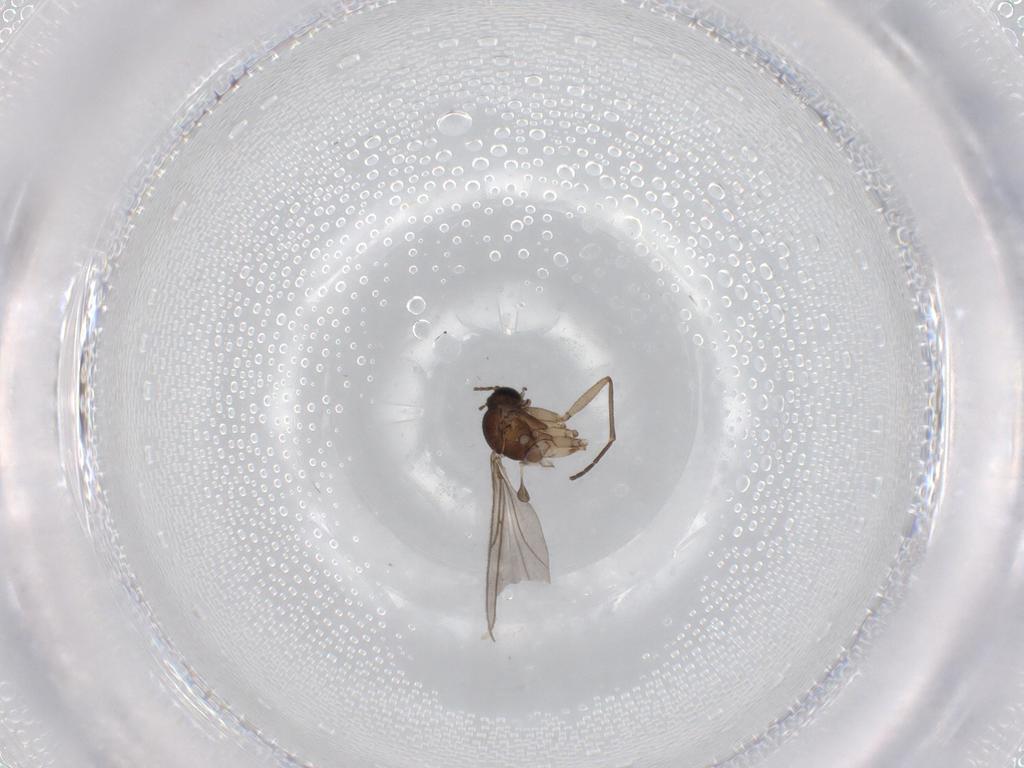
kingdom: Animalia
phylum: Arthropoda
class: Insecta
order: Diptera
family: Sciaridae
